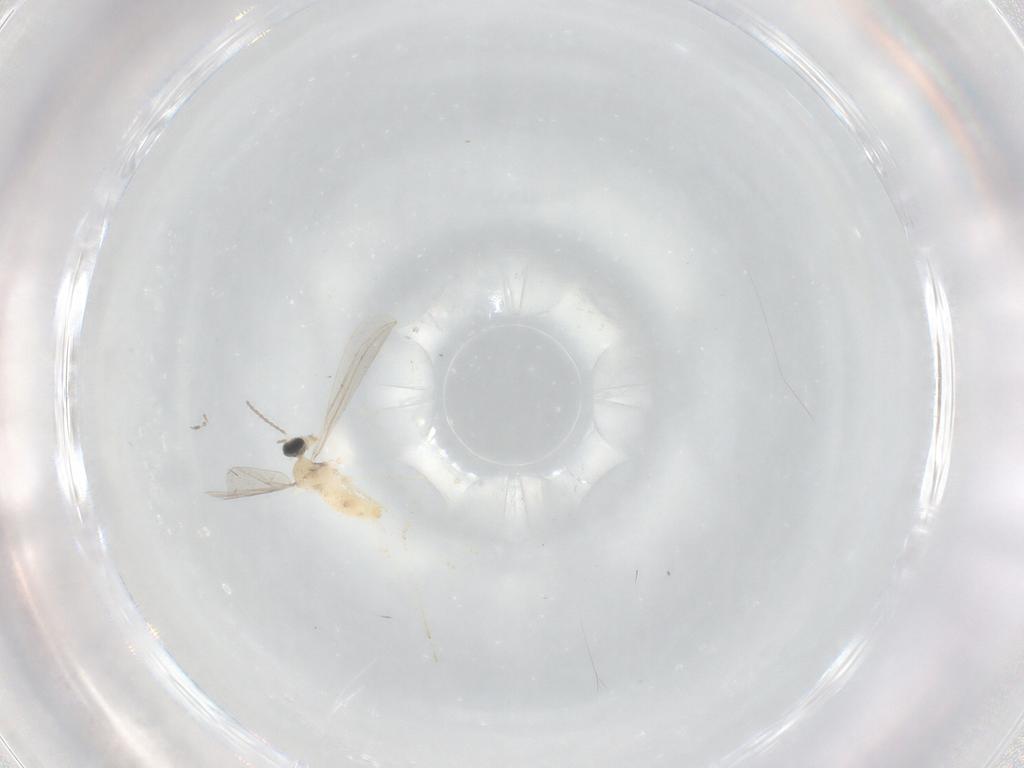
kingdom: Animalia
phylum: Arthropoda
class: Insecta
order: Diptera
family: Cecidomyiidae
